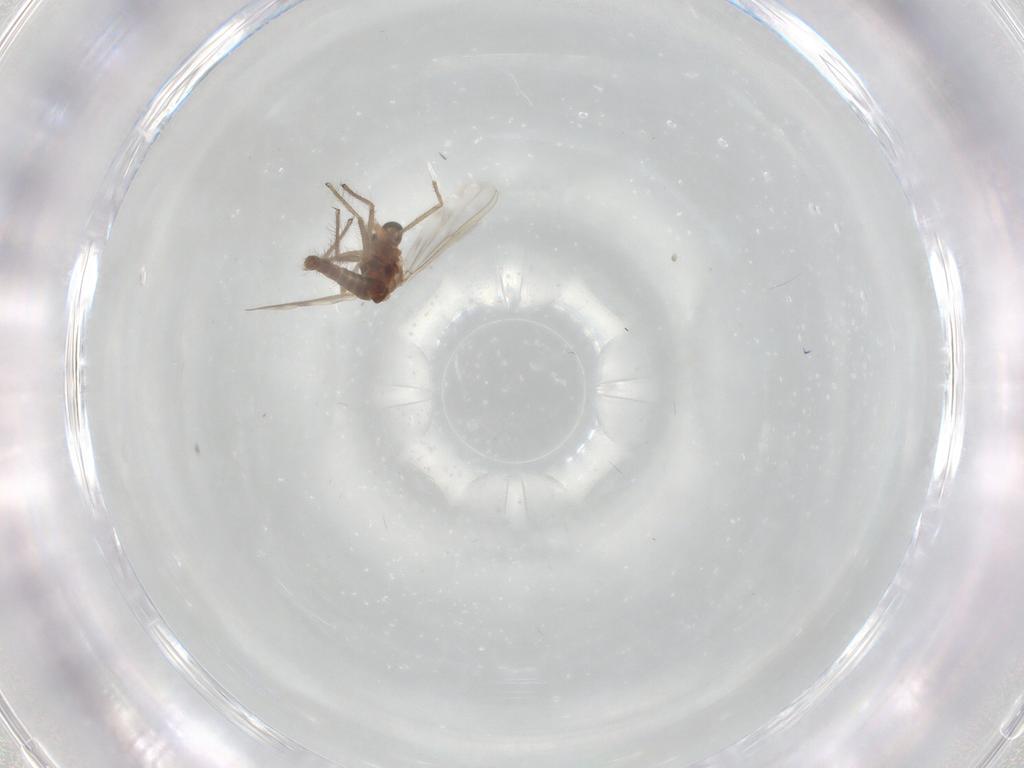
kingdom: Animalia
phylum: Arthropoda
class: Insecta
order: Diptera
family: Chironomidae
